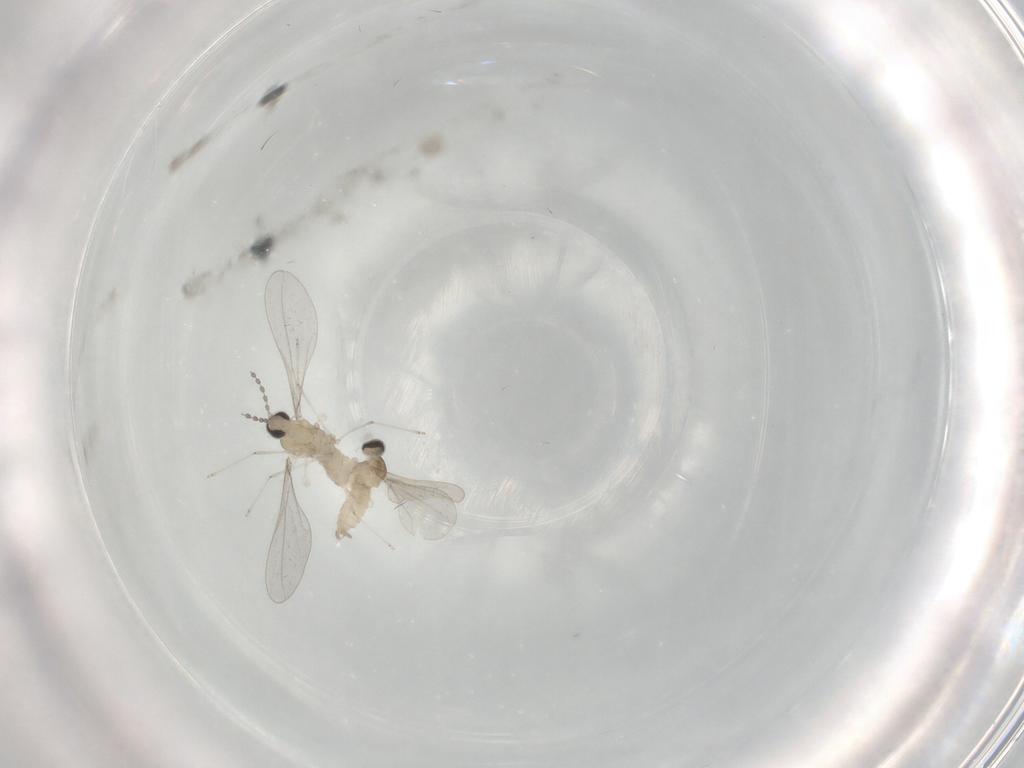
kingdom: Animalia
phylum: Arthropoda
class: Insecta
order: Diptera
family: Cecidomyiidae
